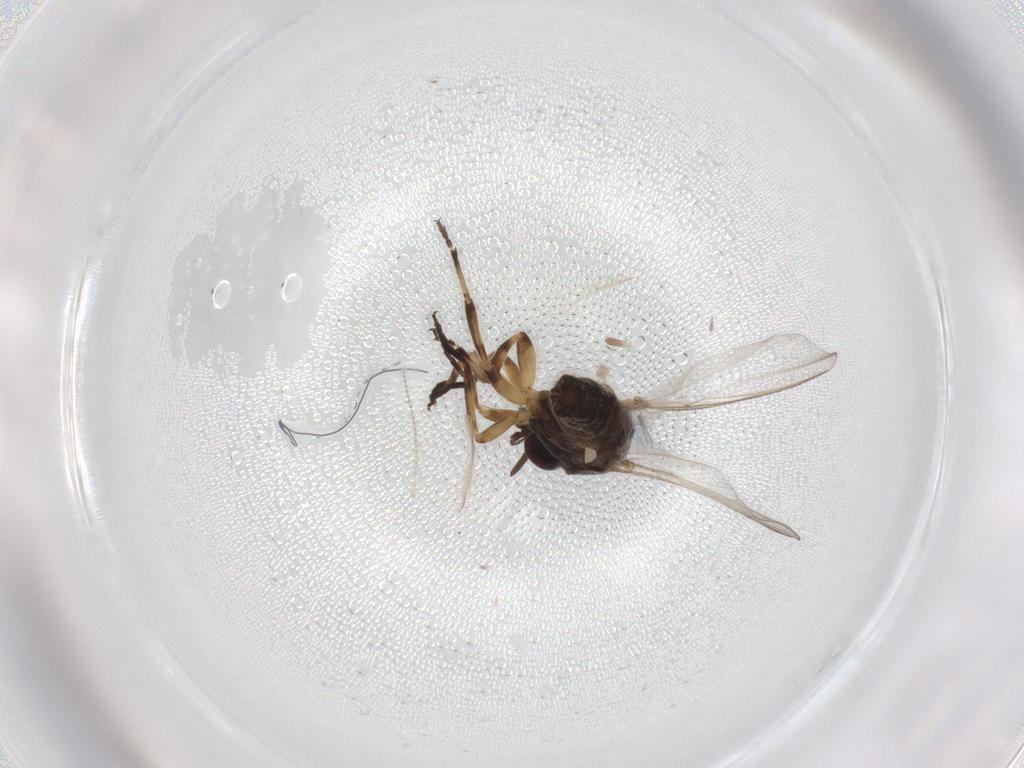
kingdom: Animalia
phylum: Arthropoda
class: Insecta
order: Diptera
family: Simuliidae
